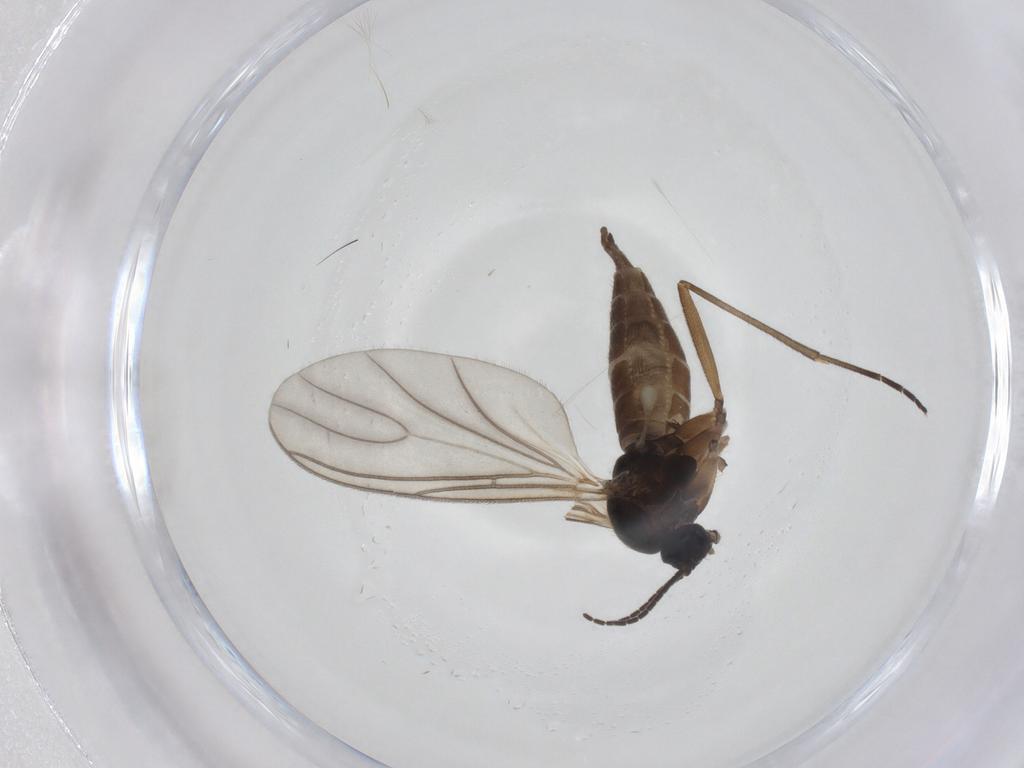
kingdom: Animalia
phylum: Arthropoda
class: Insecta
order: Diptera
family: Sciaridae
